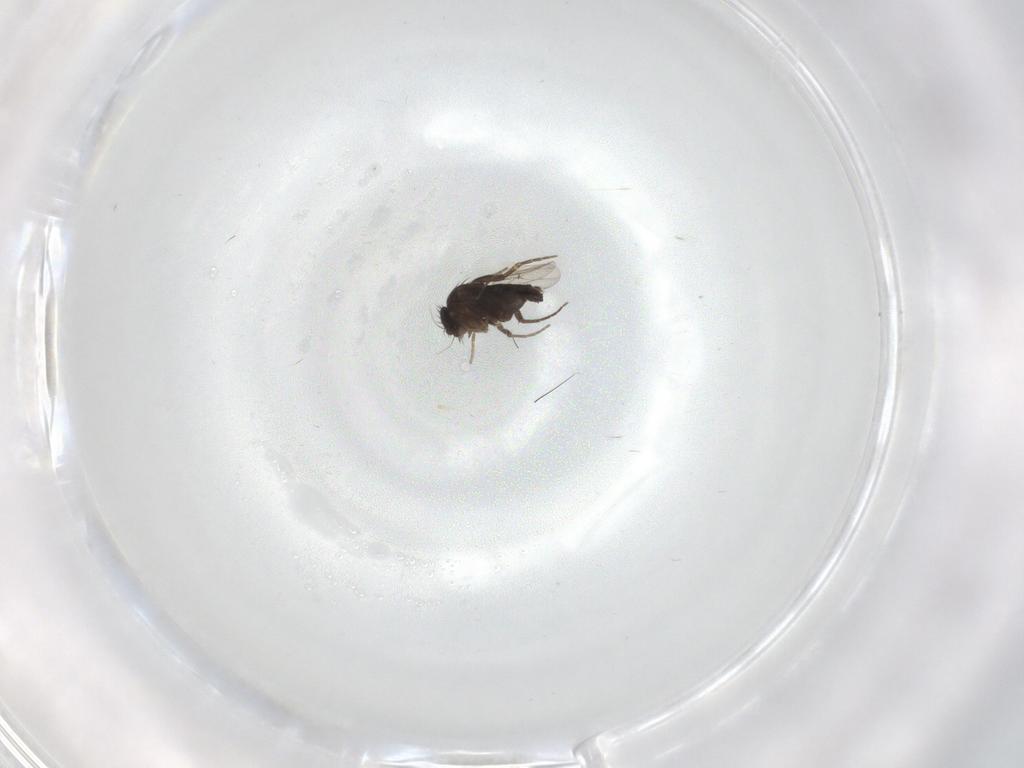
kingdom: Animalia
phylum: Arthropoda
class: Insecta
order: Diptera
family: Phoridae
